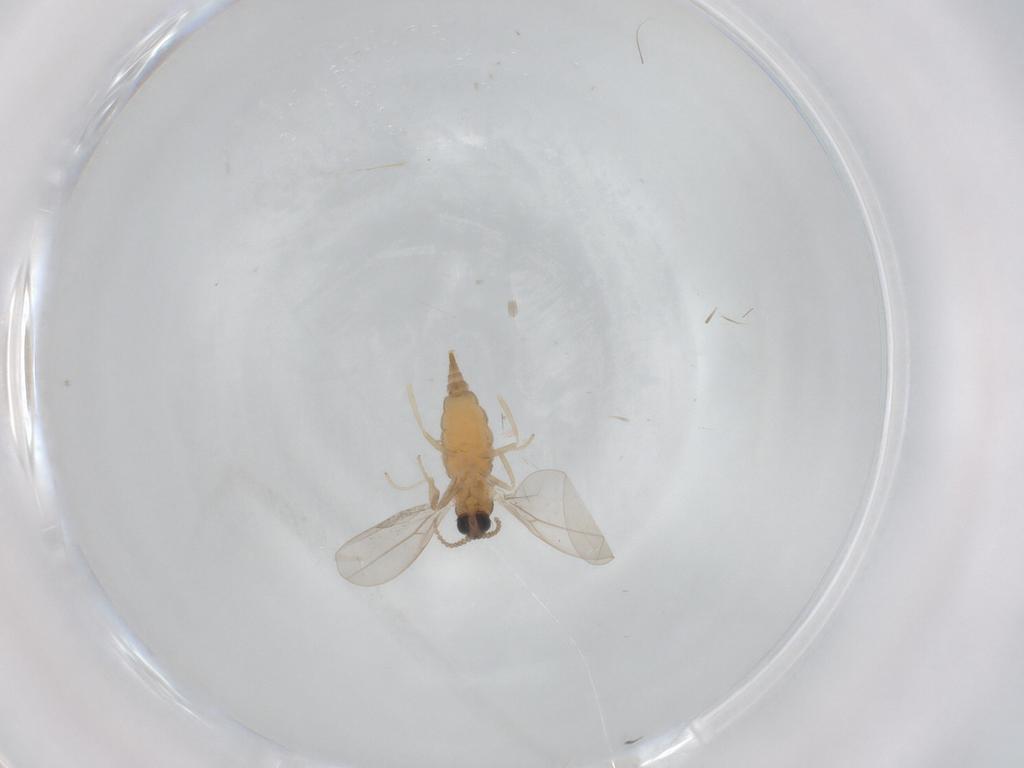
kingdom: Animalia
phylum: Arthropoda
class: Insecta
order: Diptera
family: Cecidomyiidae
